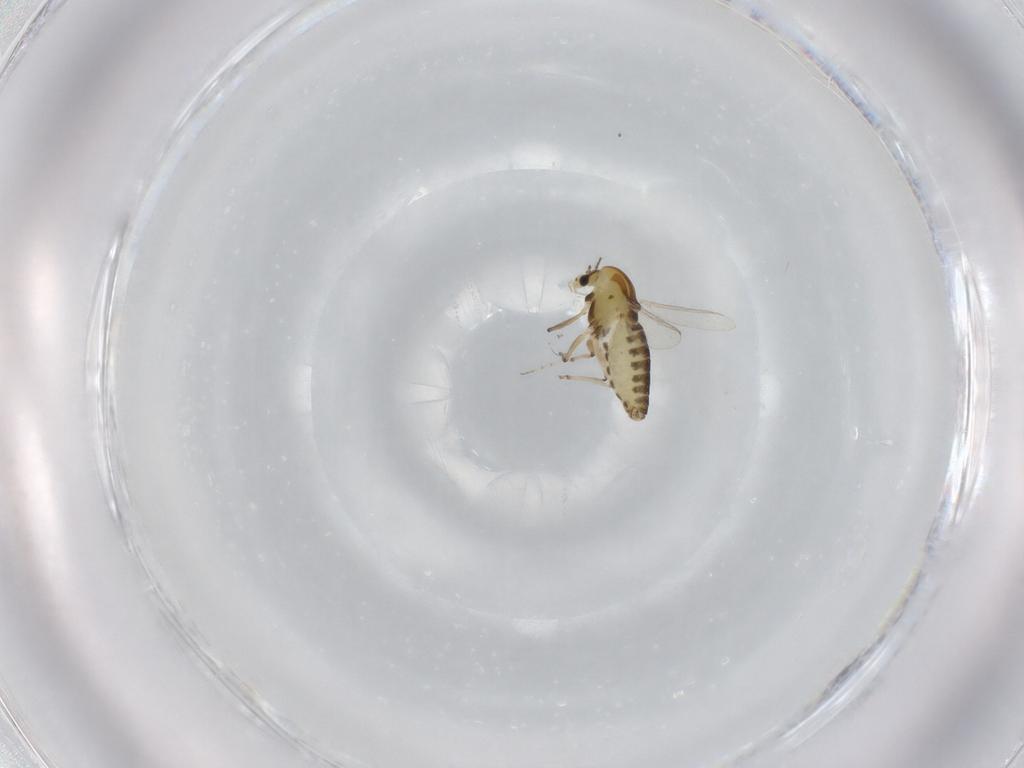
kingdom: Animalia
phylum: Arthropoda
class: Insecta
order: Diptera
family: Chironomidae
